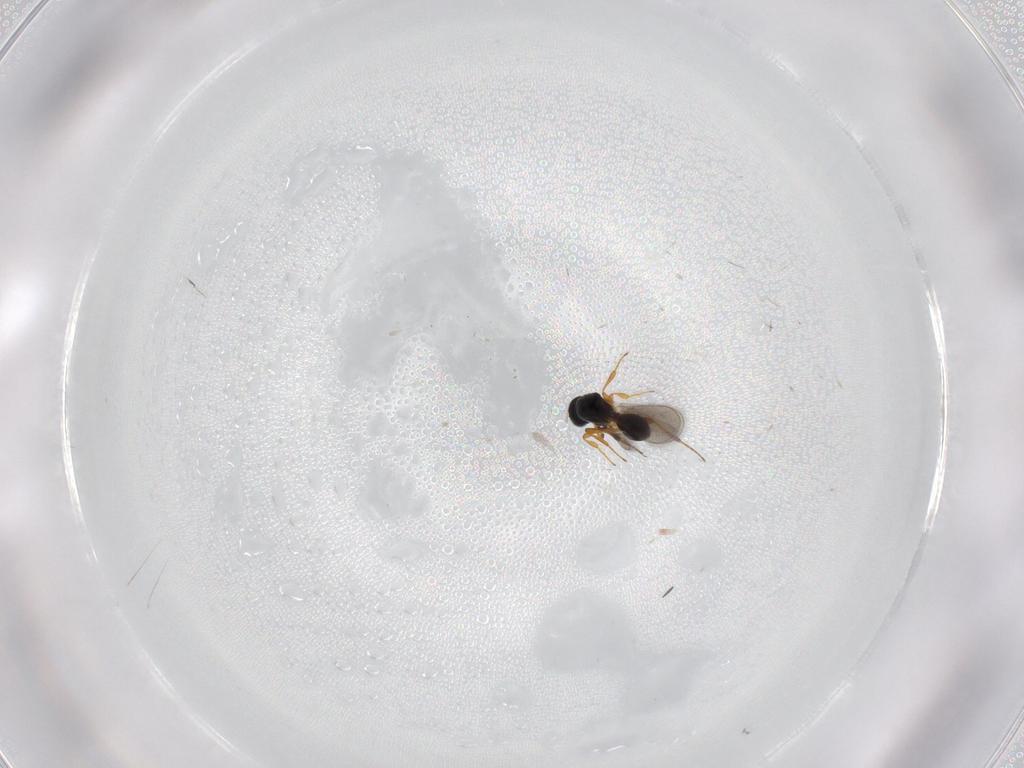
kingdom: Animalia
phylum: Arthropoda
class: Insecta
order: Hymenoptera
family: Platygastridae
